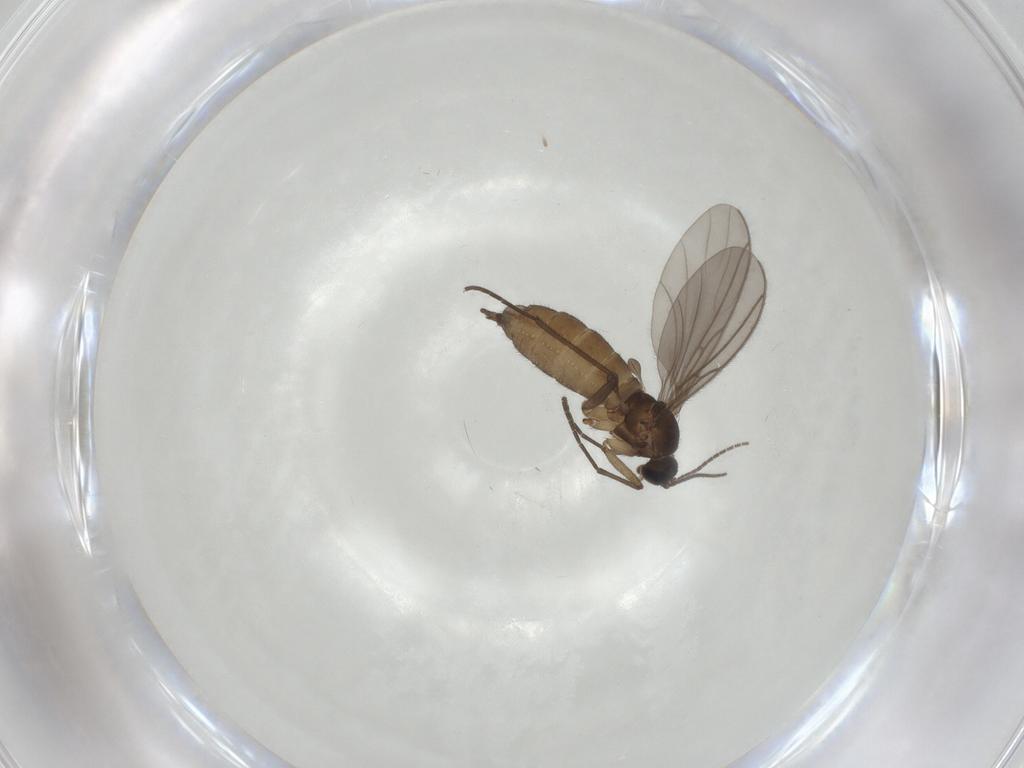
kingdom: Animalia
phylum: Arthropoda
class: Insecta
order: Diptera
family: Sciaridae
